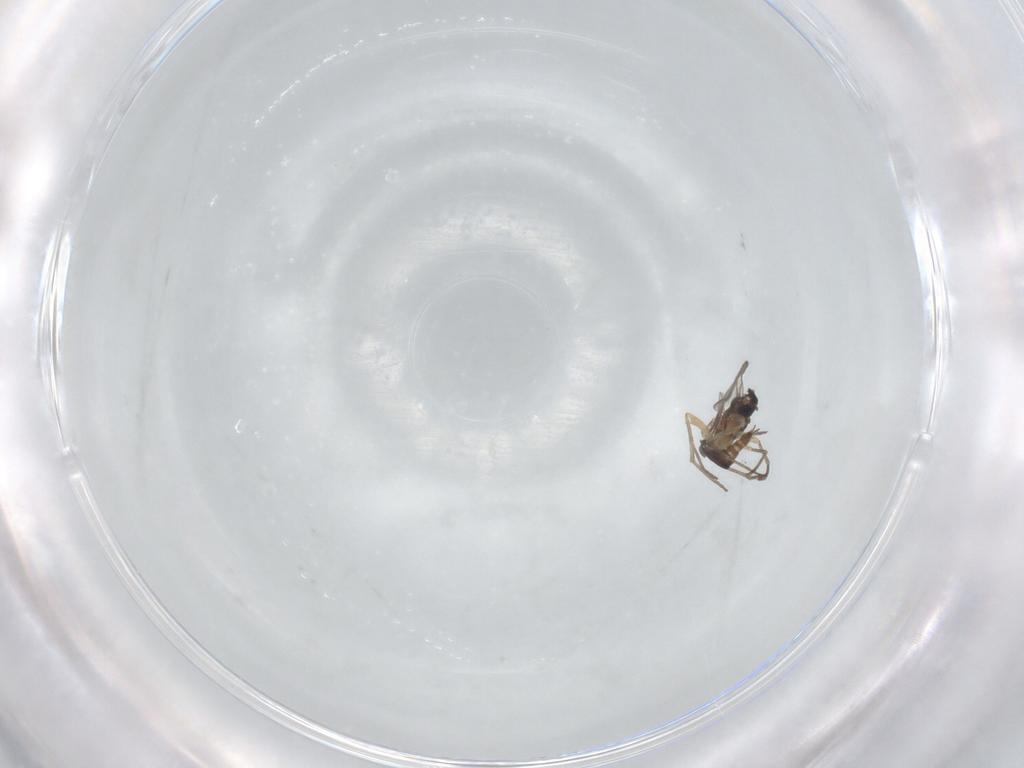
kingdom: Animalia
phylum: Arthropoda
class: Insecta
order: Diptera
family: Sciaridae
